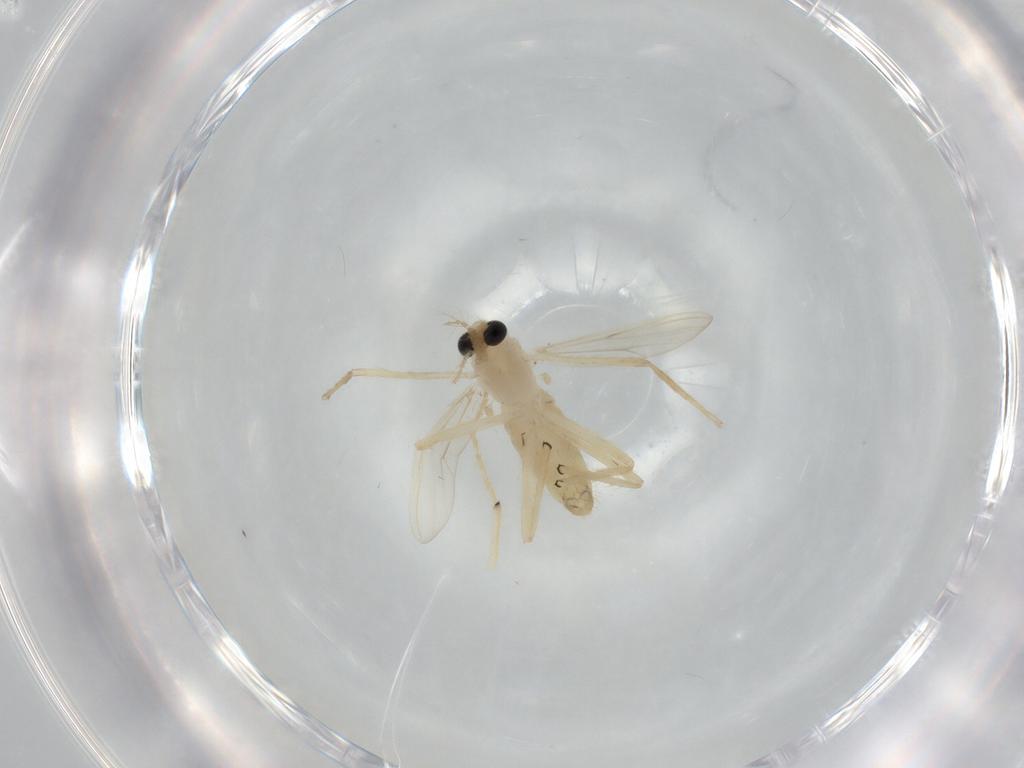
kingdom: Animalia
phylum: Arthropoda
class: Insecta
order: Diptera
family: Chironomidae
